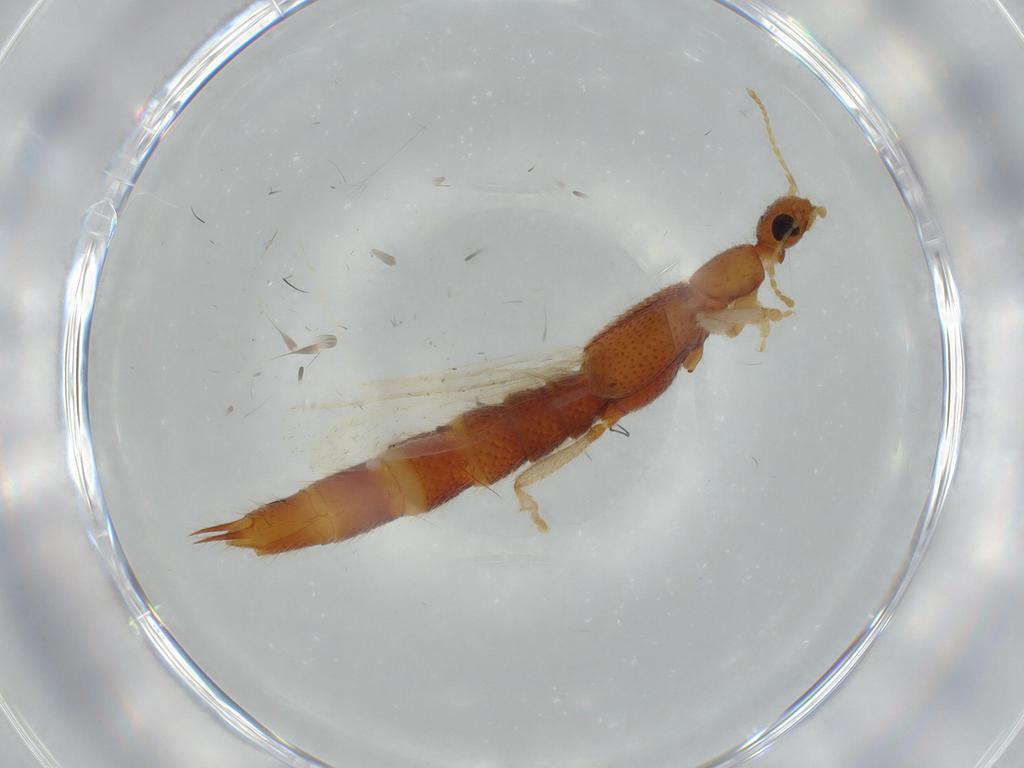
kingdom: Animalia
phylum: Arthropoda
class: Insecta
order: Coleoptera
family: Staphylinidae
